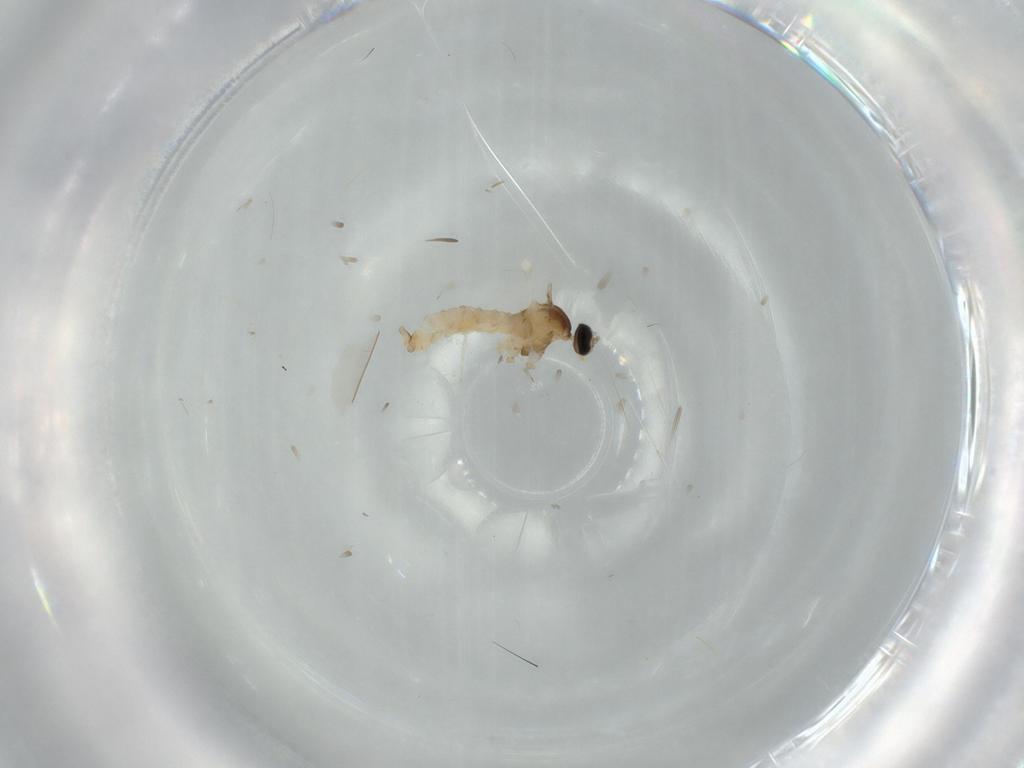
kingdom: Animalia
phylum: Arthropoda
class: Insecta
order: Diptera
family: Cecidomyiidae
